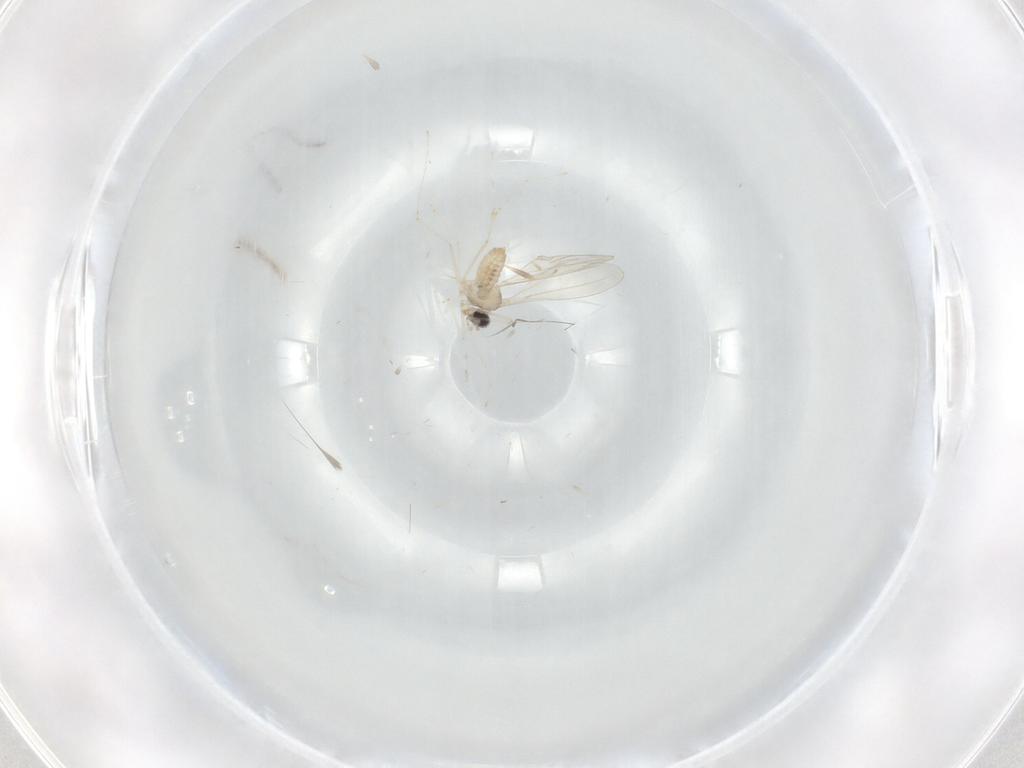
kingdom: Animalia
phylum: Arthropoda
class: Insecta
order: Diptera
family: Cecidomyiidae
